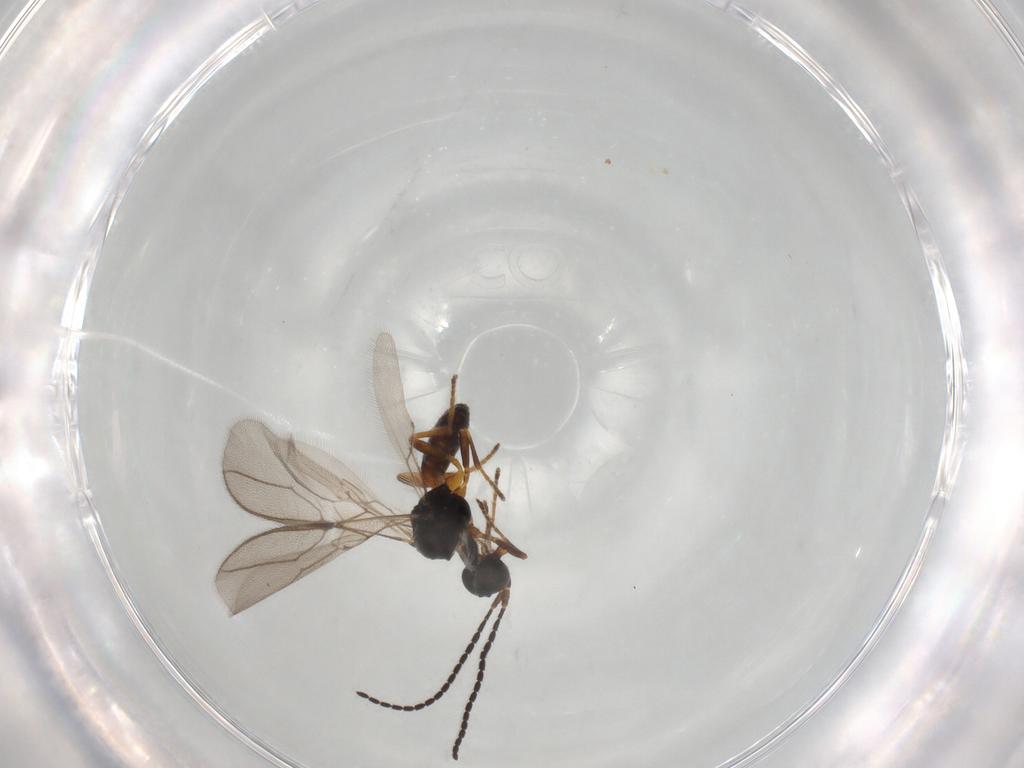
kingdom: Animalia
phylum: Arthropoda
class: Insecta
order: Hymenoptera
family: Braconidae
